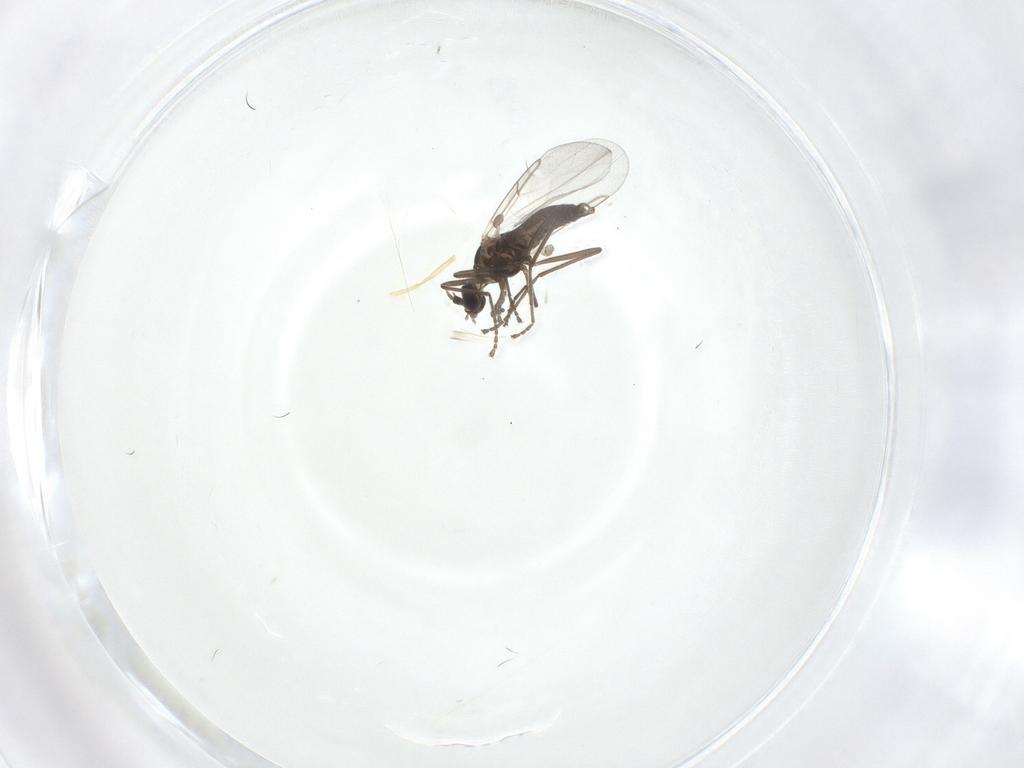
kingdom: Animalia
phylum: Arthropoda
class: Insecta
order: Diptera
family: Cecidomyiidae
